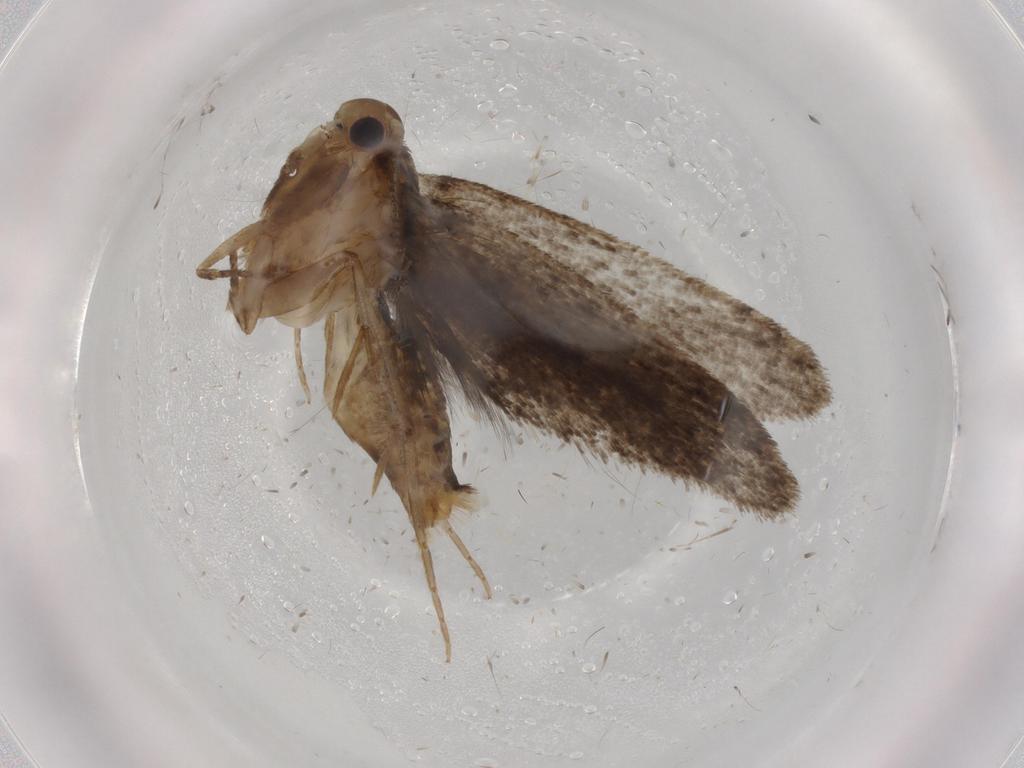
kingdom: Animalia
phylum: Arthropoda
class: Insecta
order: Lepidoptera
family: Tineidae
